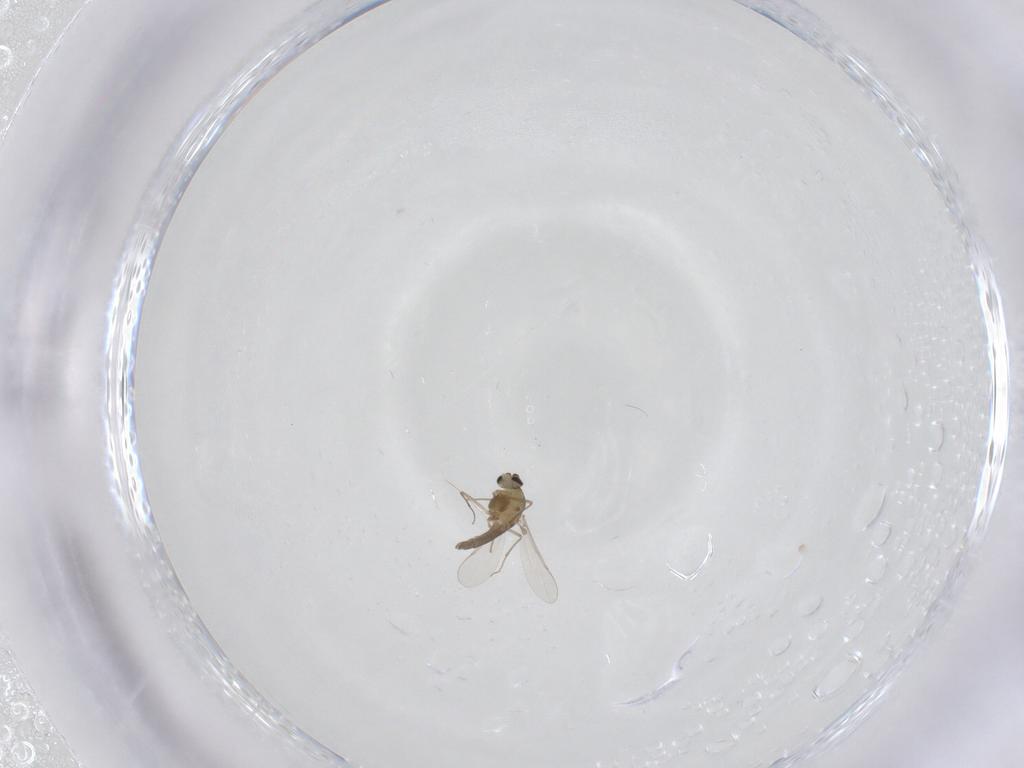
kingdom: Animalia
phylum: Arthropoda
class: Insecta
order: Diptera
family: Chironomidae
